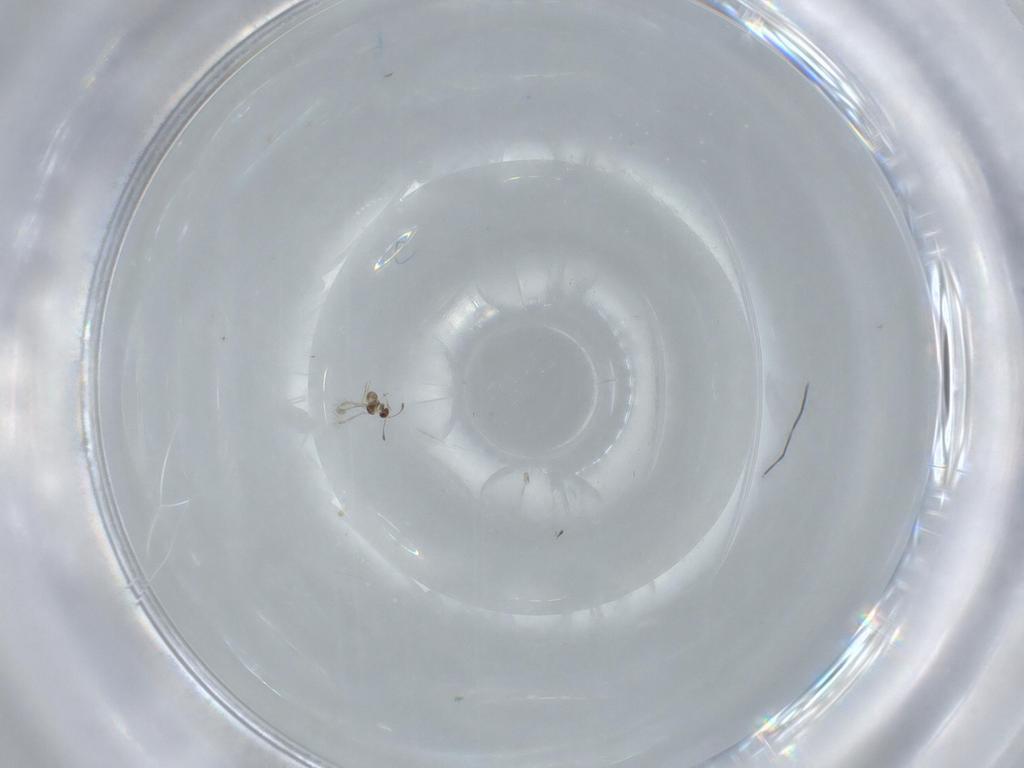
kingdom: Animalia
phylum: Arthropoda
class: Insecta
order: Hymenoptera
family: Mymaridae
